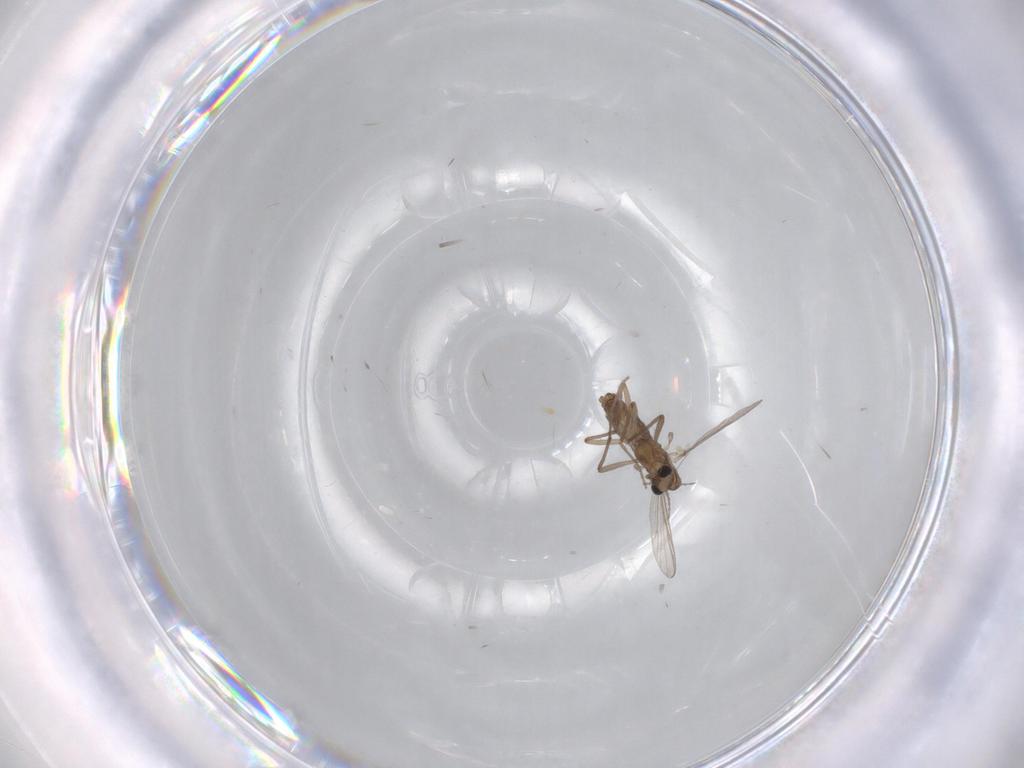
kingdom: Animalia
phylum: Arthropoda
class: Insecta
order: Diptera
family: Chironomidae
